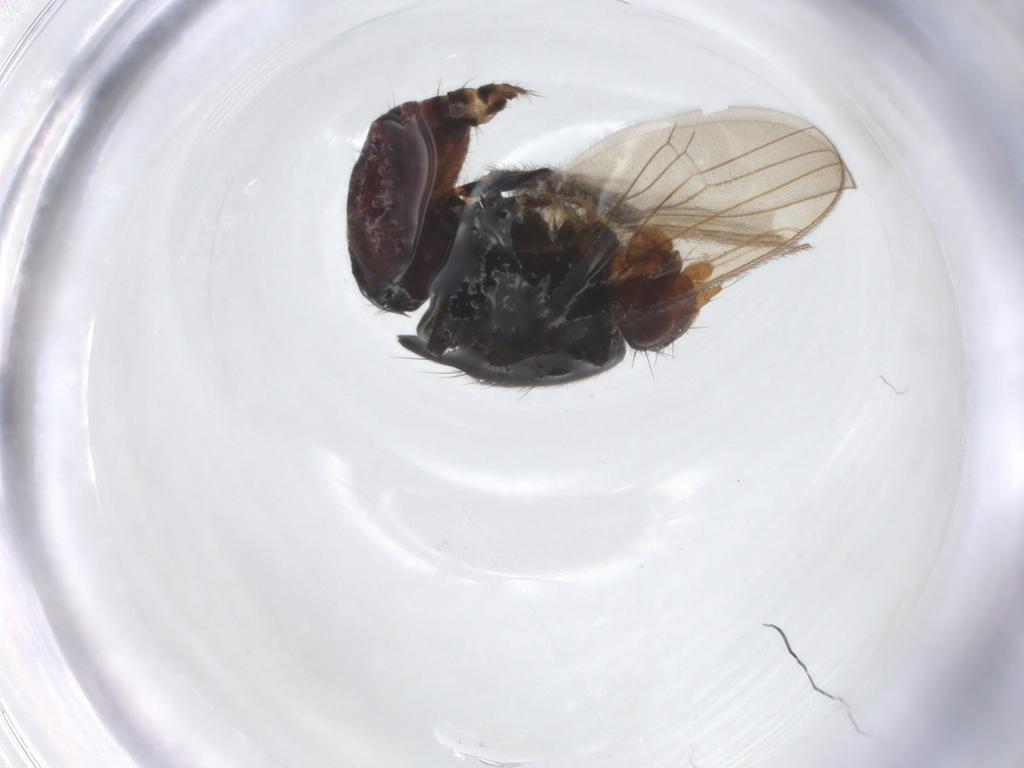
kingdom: Animalia
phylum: Arthropoda
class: Insecta
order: Diptera
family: Sphaeroceridae
